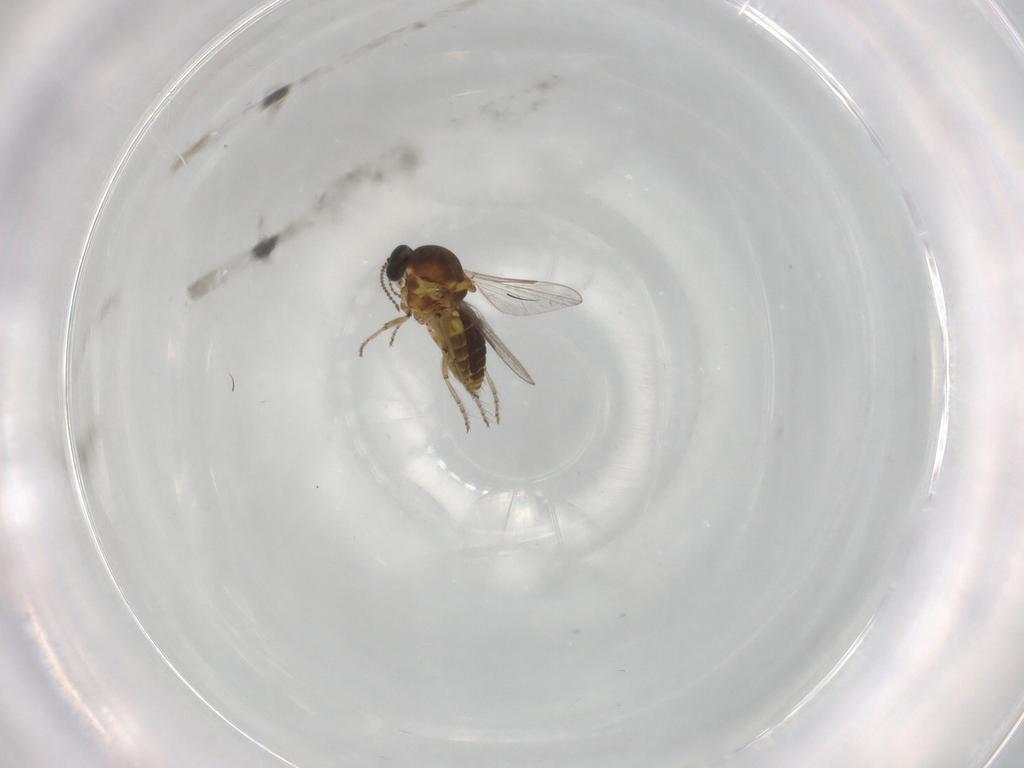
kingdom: Animalia
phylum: Arthropoda
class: Insecta
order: Diptera
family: Ceratopogonidae
